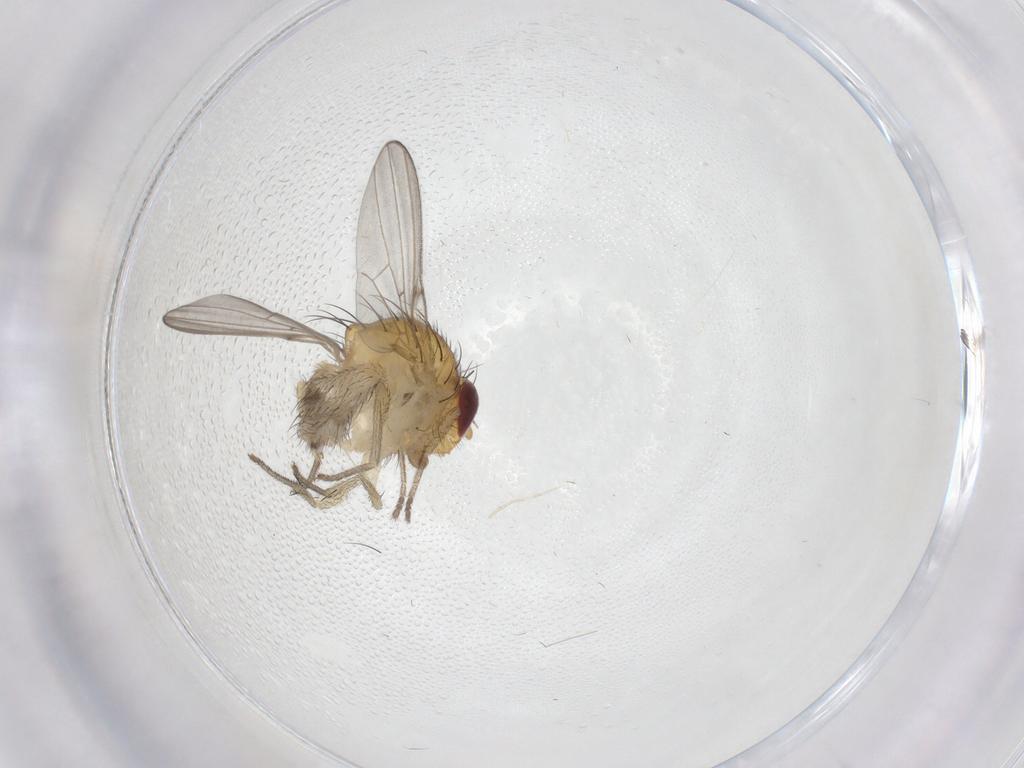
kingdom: Animalia
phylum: Arthropoda
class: Insecta
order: Diptera
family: Limoniidae
